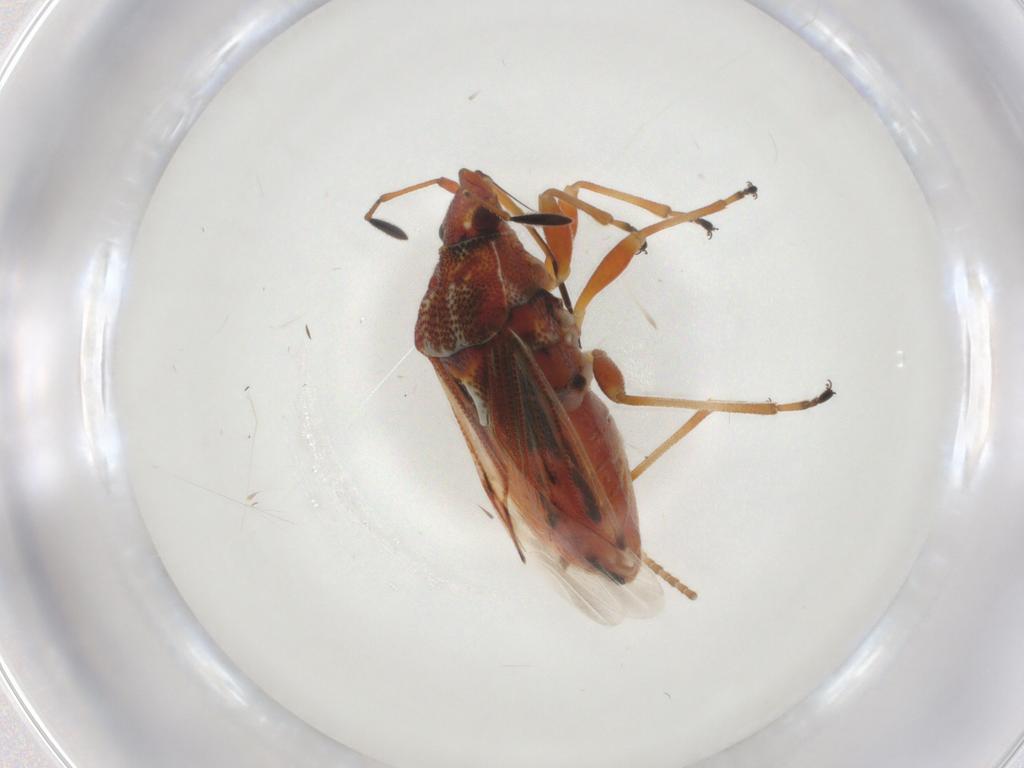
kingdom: Animalia
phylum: Arthropoda
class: Insecta
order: Hemiptera
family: Lygaeidae
